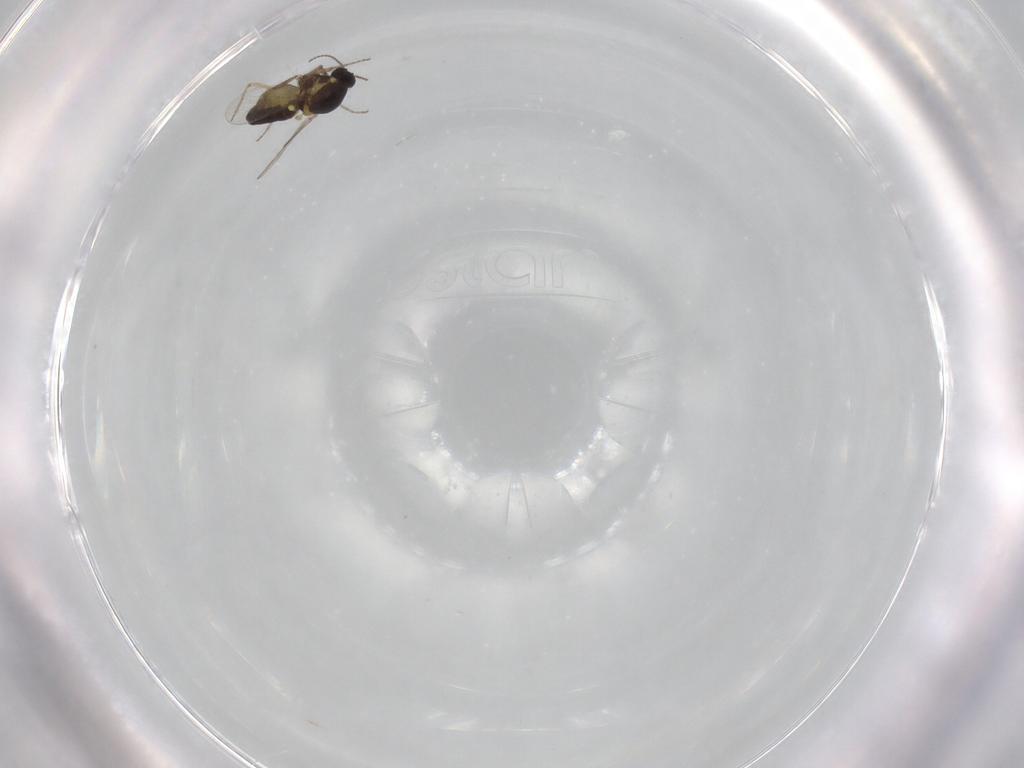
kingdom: Animalia
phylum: Arthropoda
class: Insecta
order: Diptera
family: Ceratopogonidae
